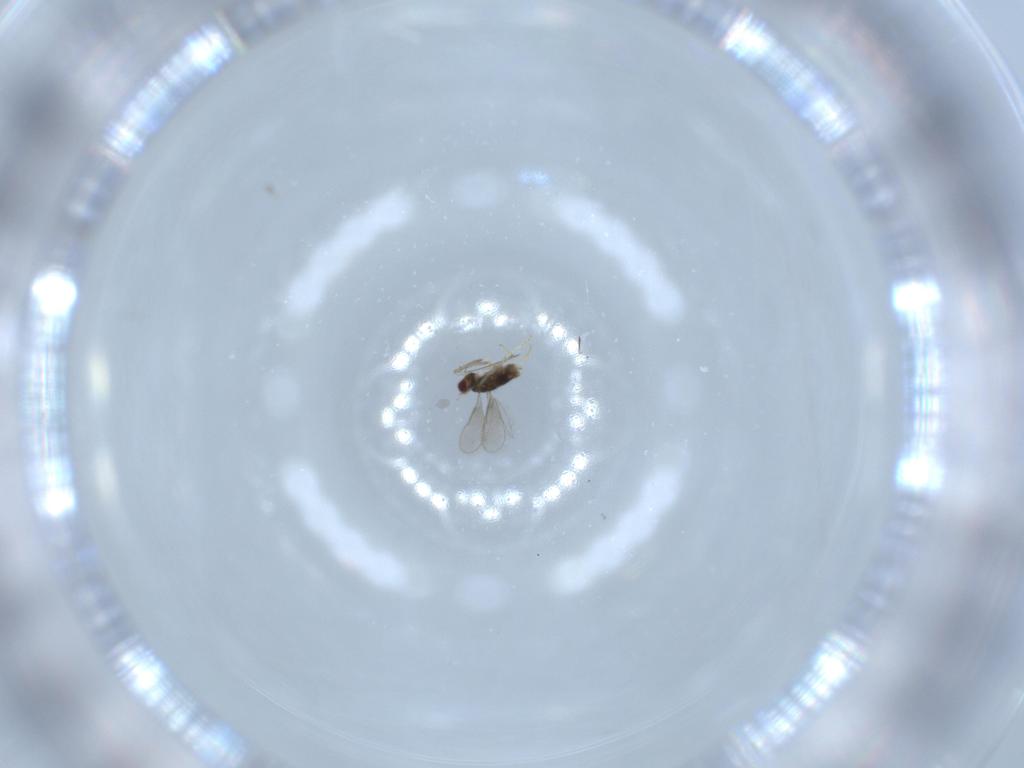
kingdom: Animalia
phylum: Arthropoda
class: Insecta
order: Hymenoptera
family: Aphelinidae
